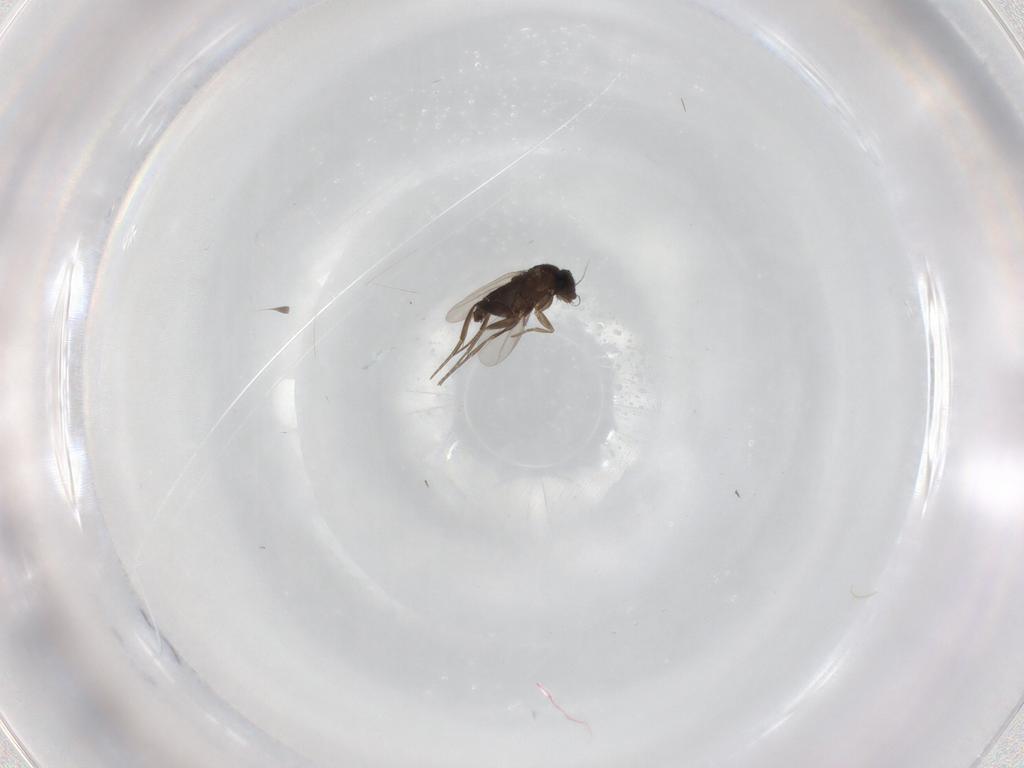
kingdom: Animalia
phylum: Arthropoda
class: Insecta
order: Diptera
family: Phoridae
